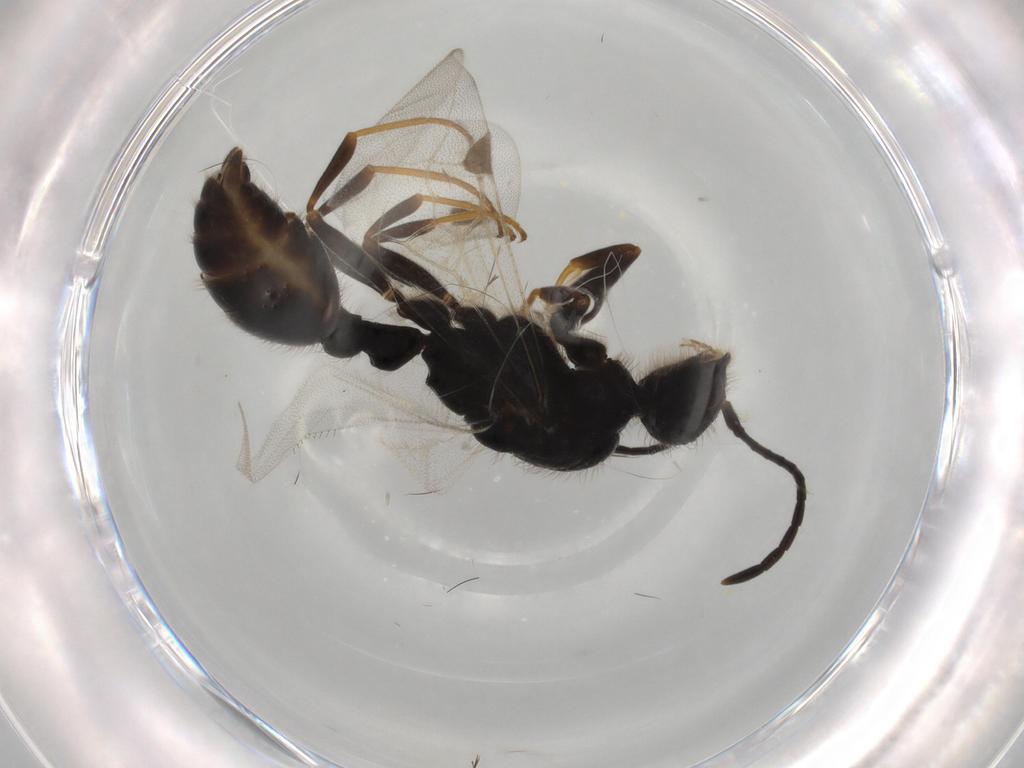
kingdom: Animalia
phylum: Arthropoda
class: Insecta
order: Hymenoptera
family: Formicidae
